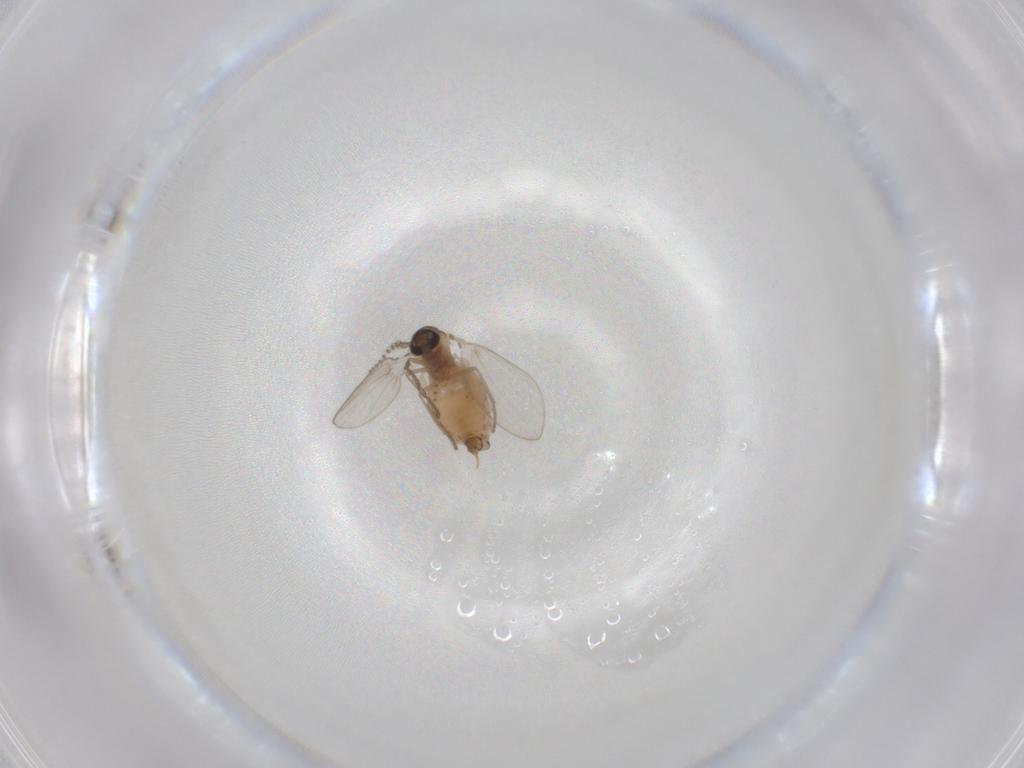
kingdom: Animalia
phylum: Arthropoda
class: Insecta
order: Diptera
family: Psychodidae
